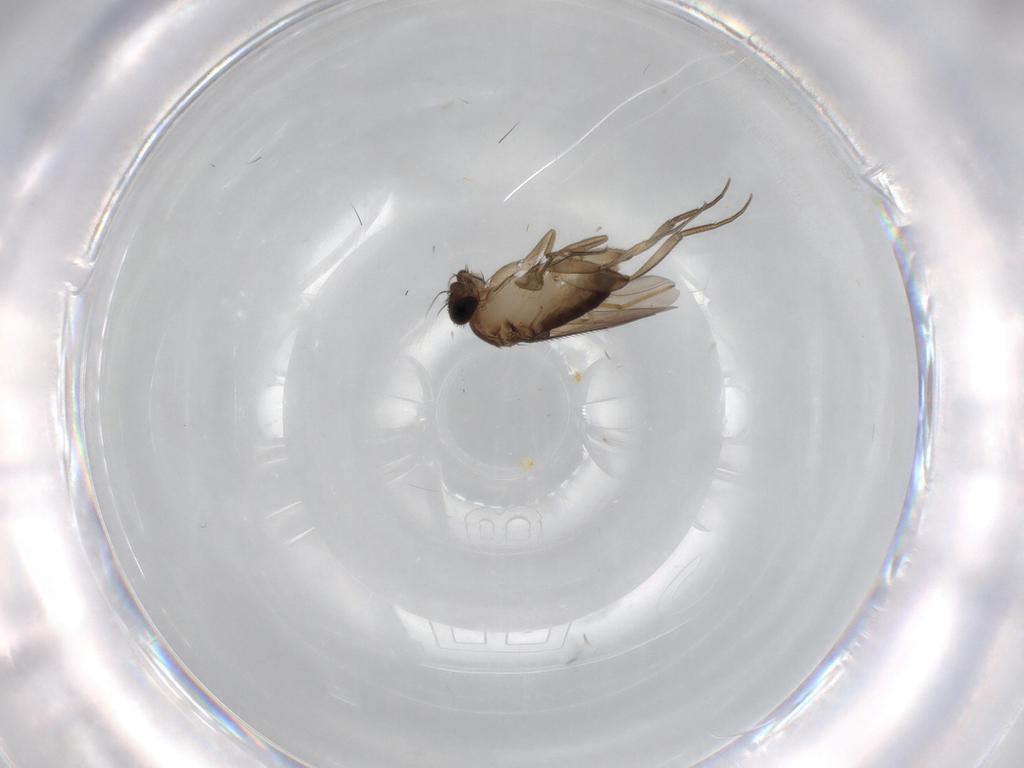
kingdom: Animalia
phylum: Arthropoda
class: Insecta
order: Diptera
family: Phoridae
